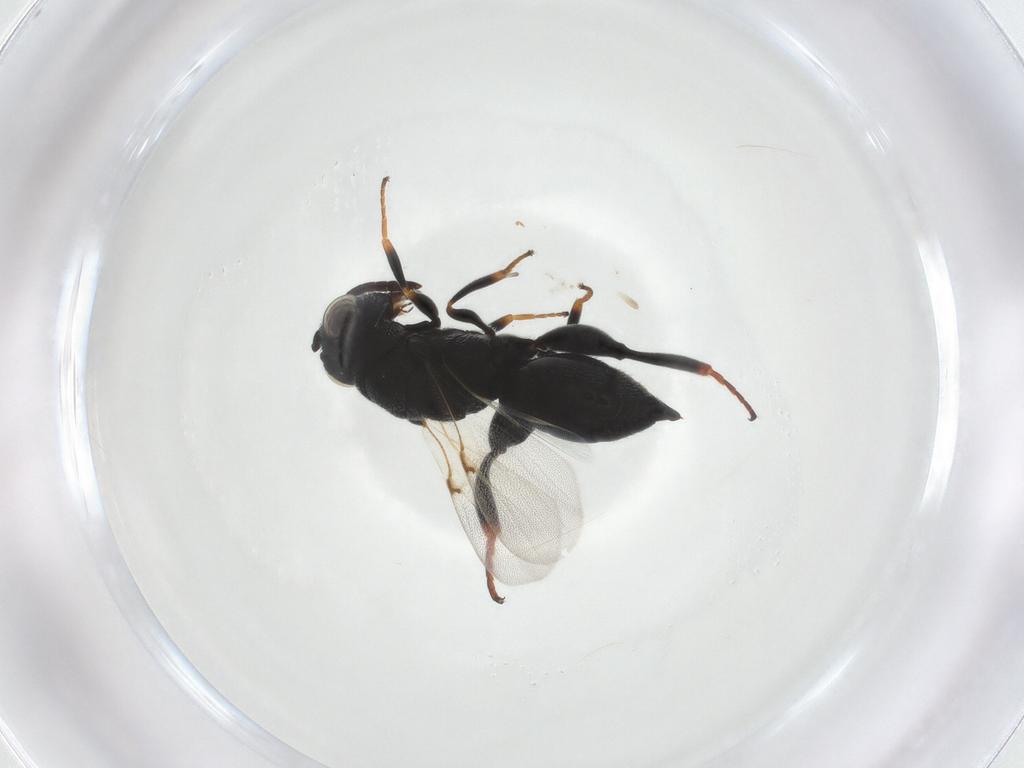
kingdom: Animalia
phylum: Arthropoda
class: Insecta
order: Hymenoptera
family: Chalcididae
